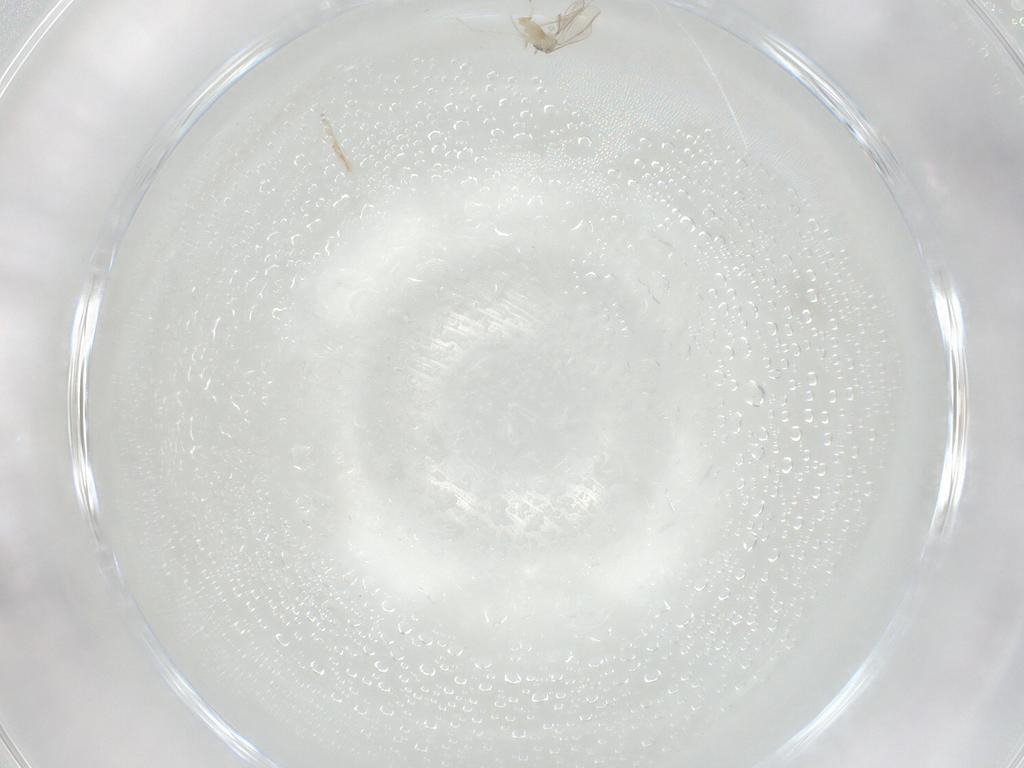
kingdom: Animalia
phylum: Arthropoda
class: Insecta
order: Diptera
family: Cecidomyiidae
